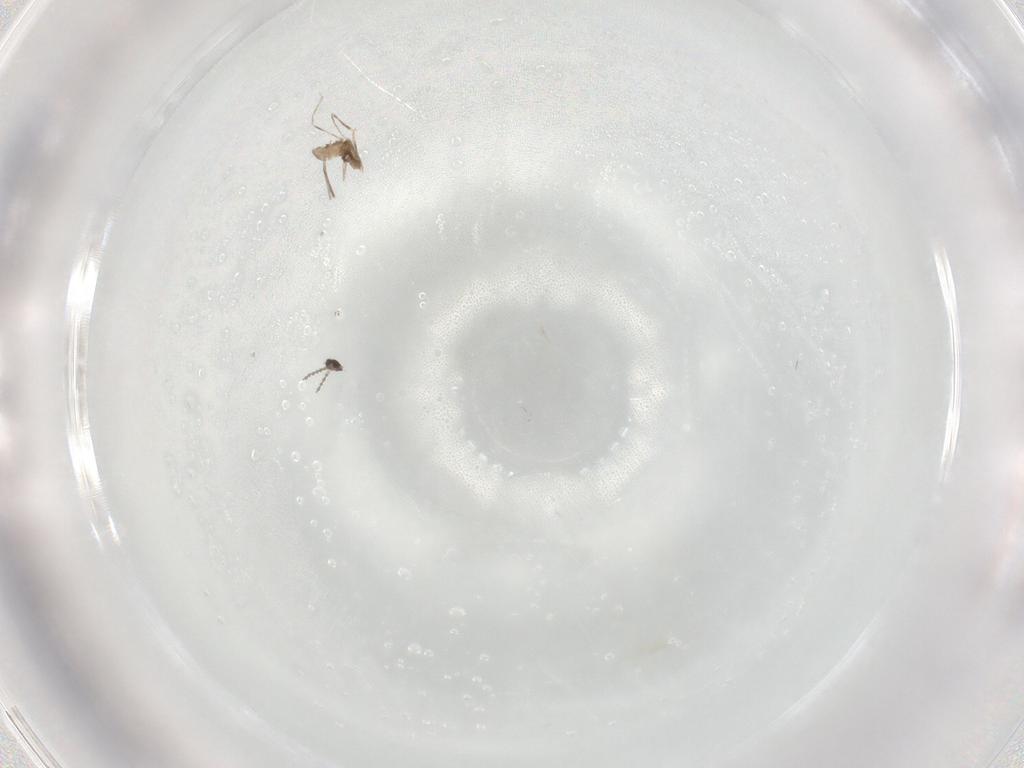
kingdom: Animalia
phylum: Arthropoda
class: Insecta
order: Diptera
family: Cecidomyiidae
